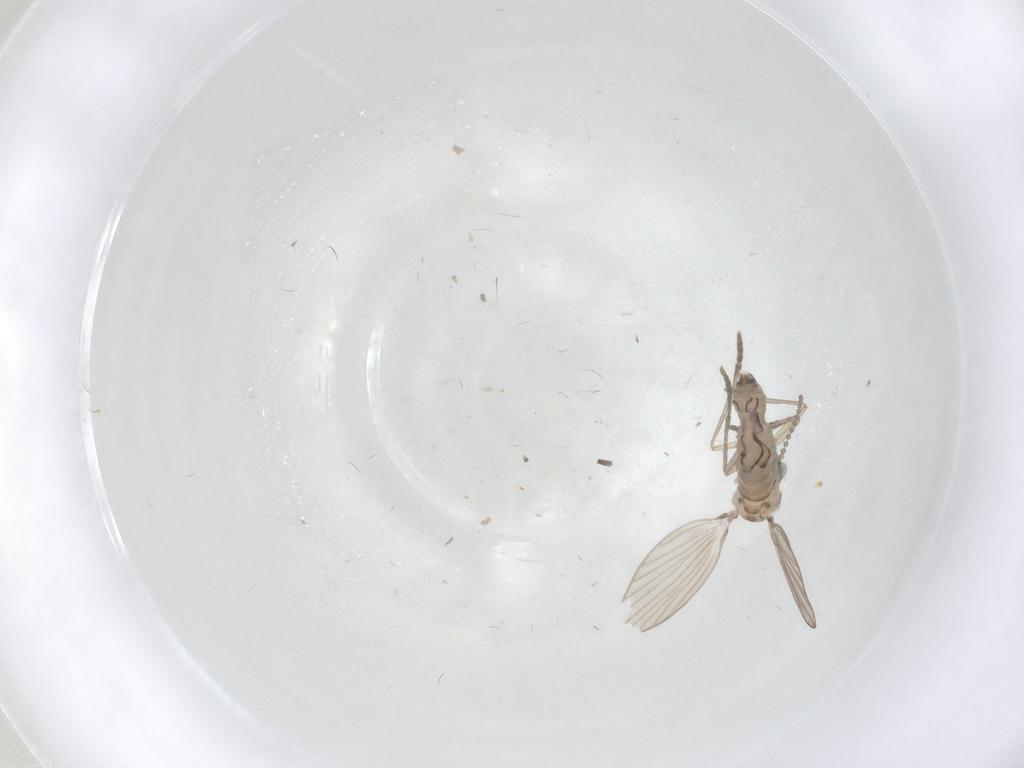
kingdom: Animalia
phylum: Arthropoda
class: Insecta
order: Diptera
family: Psychodidae
